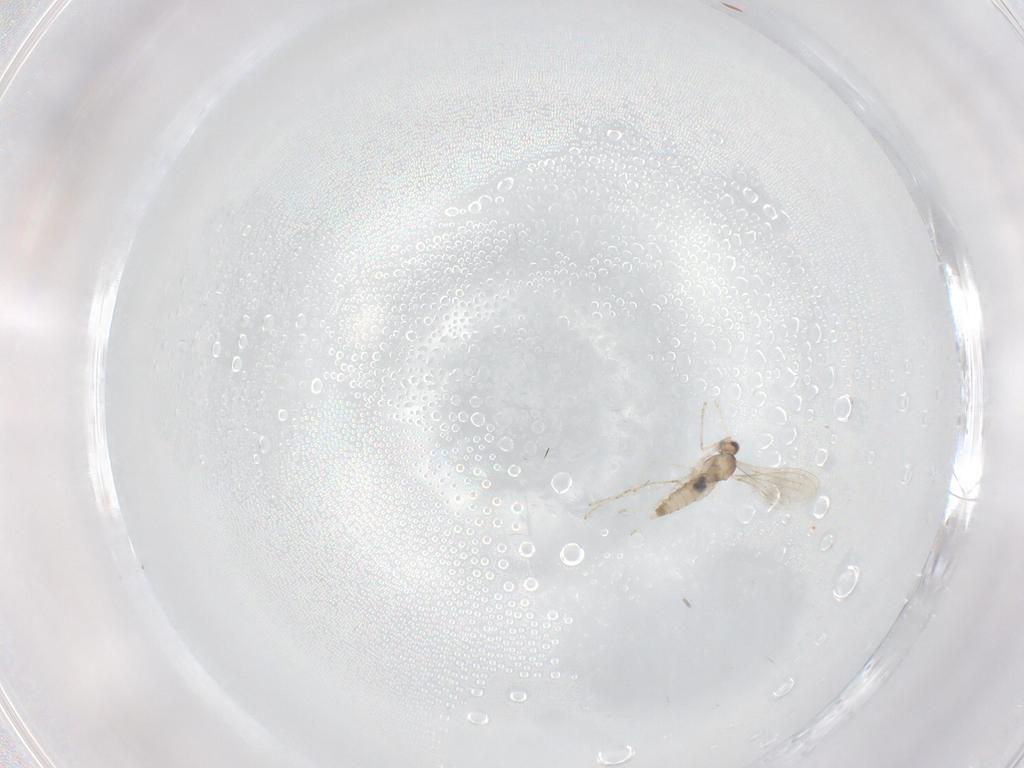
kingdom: Animalia
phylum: Arthropoda
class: Insecta
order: Diptera
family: Cecidomyiidae
